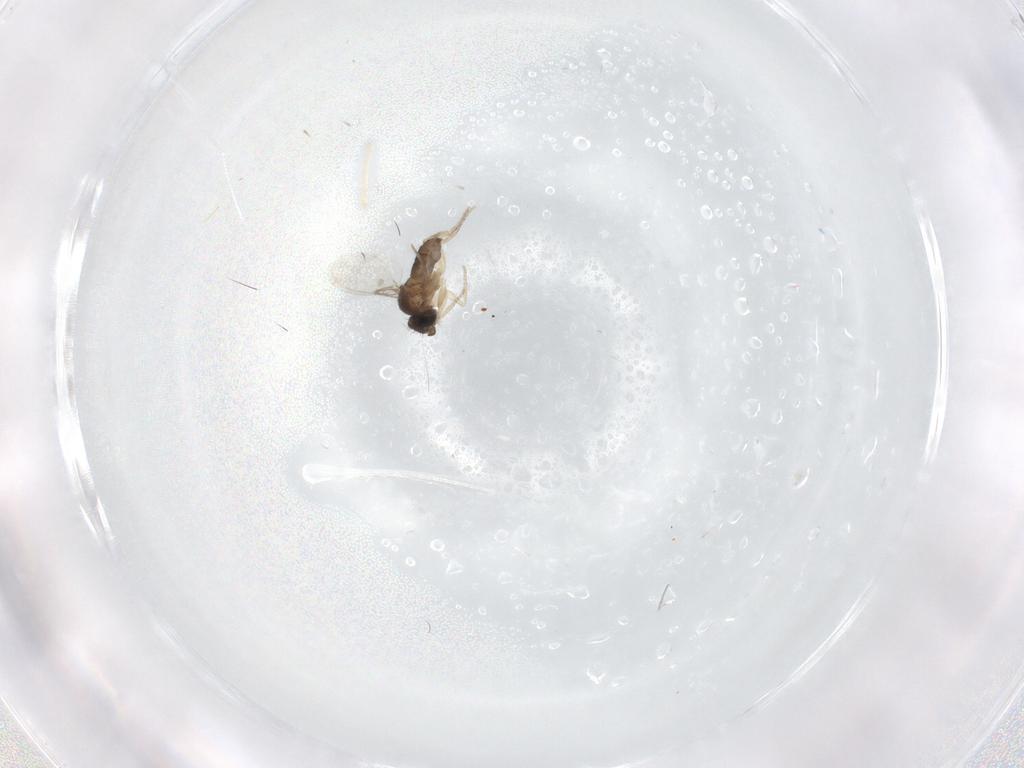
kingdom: Animalia
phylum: Arthropoda
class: Insecta
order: Diptera
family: Phoridae
